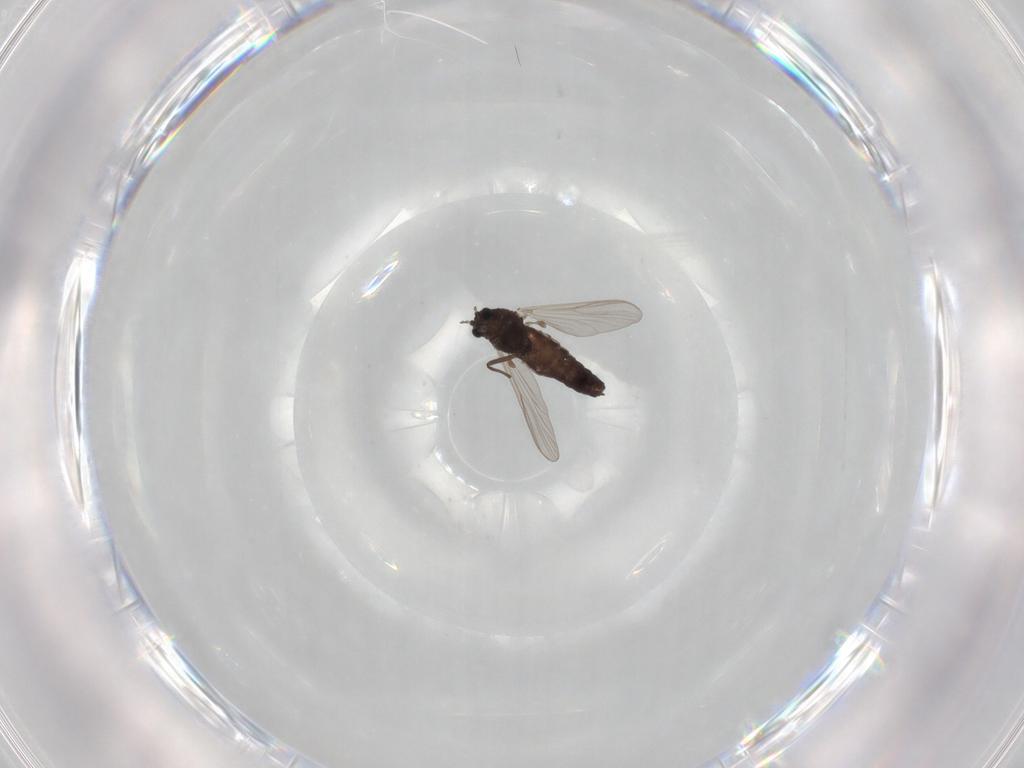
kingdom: Animalia
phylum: Arthropoda
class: Insecta
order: Diptera
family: Chironomidae
